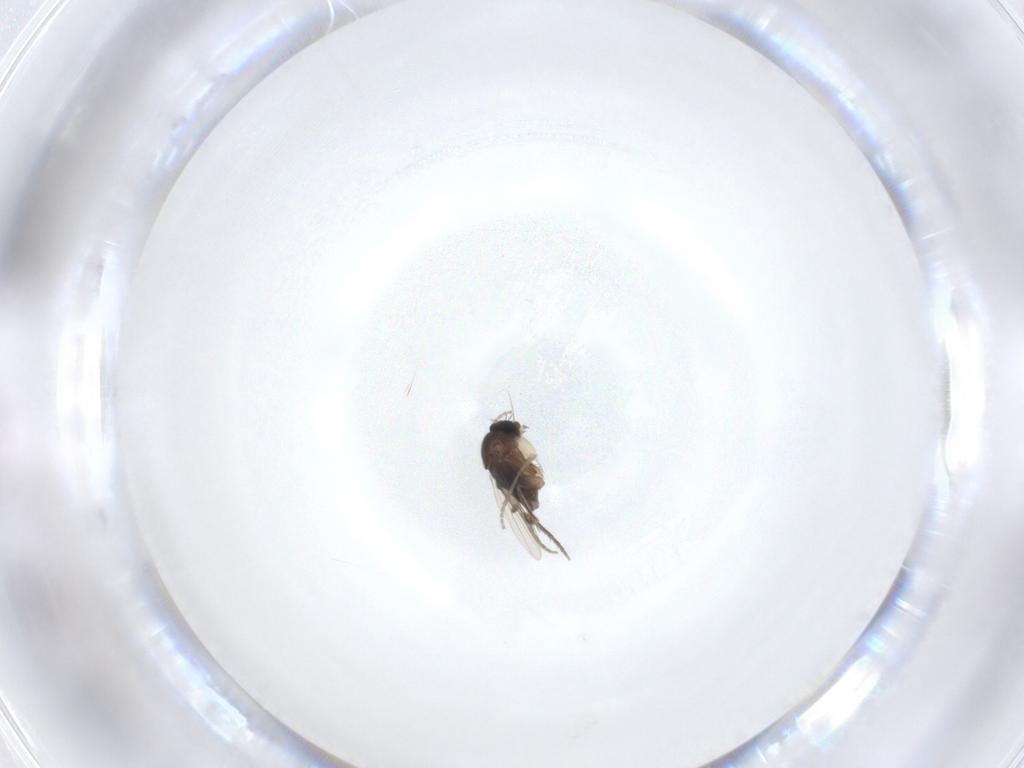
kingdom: Animalia
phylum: Arthropoda
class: Insecta
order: Diptera
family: Phoridae
